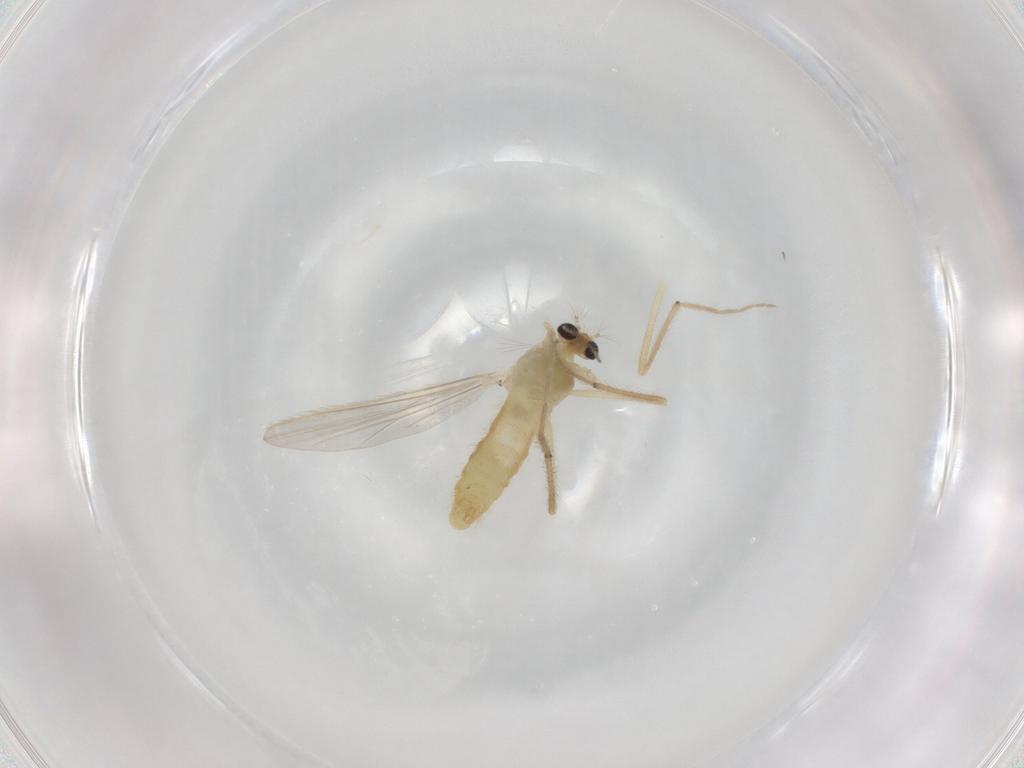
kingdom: Animalia
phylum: Arthropoda
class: Insecta
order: Diptera
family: Chironomidae
